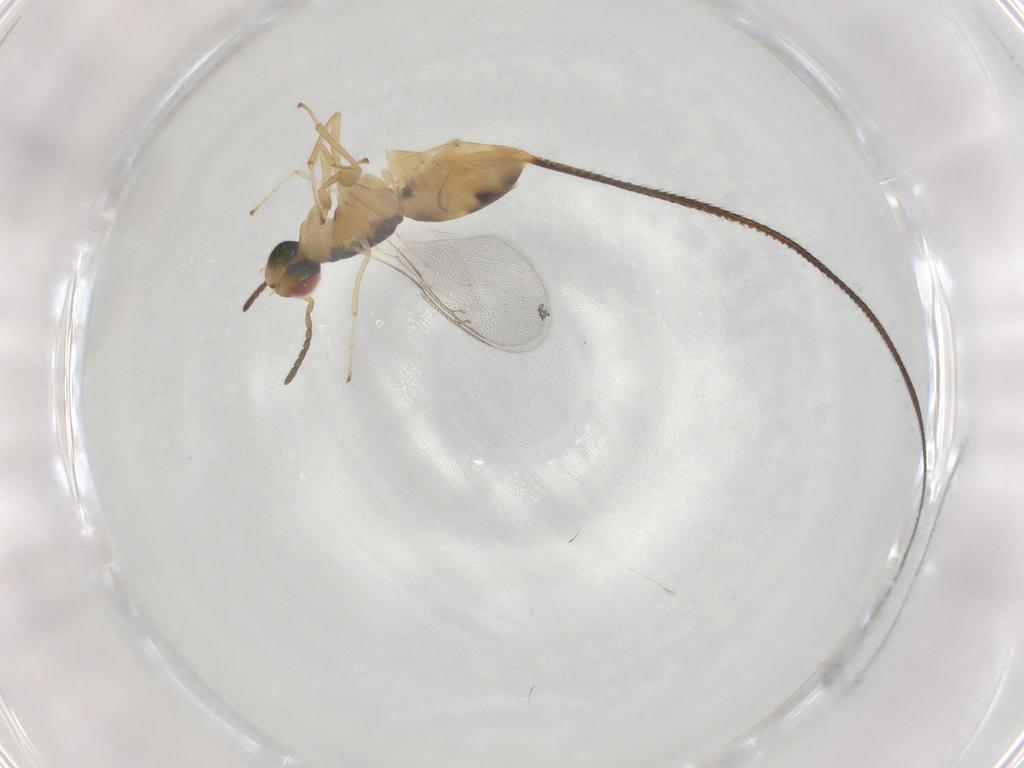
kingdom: Animalia
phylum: Arthropoda
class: Insecta
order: Hymenoptera
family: Pteromalidae
